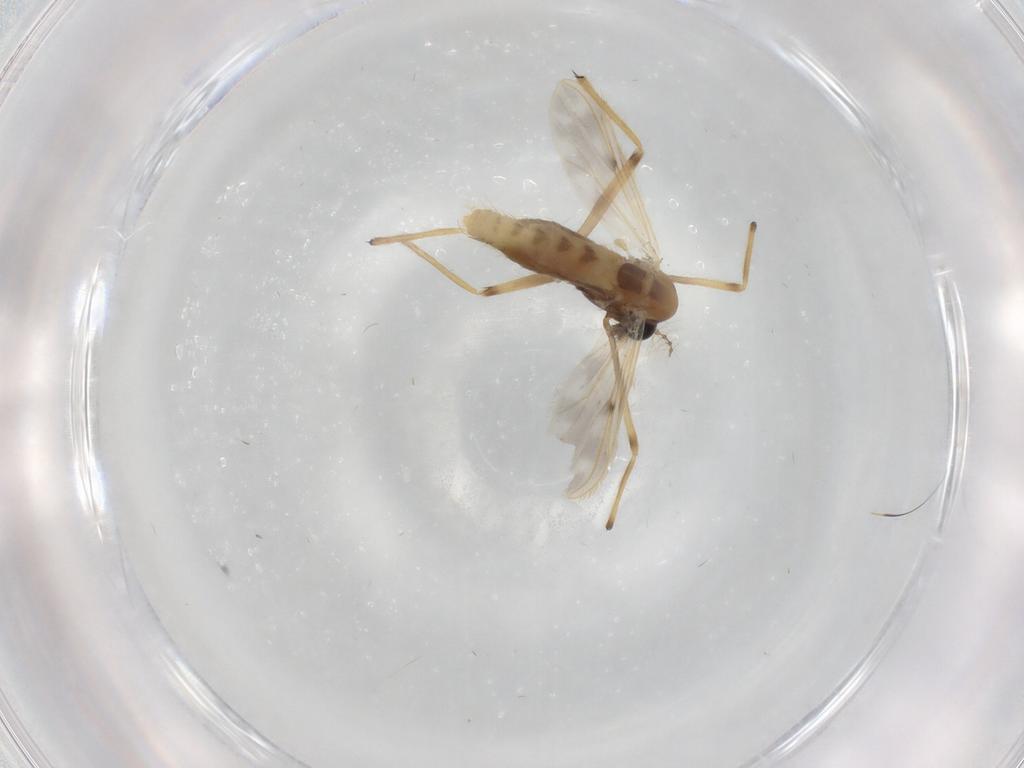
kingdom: Animalia
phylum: Arthropoda
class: Insecta
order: Diptera
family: Chironomidae
